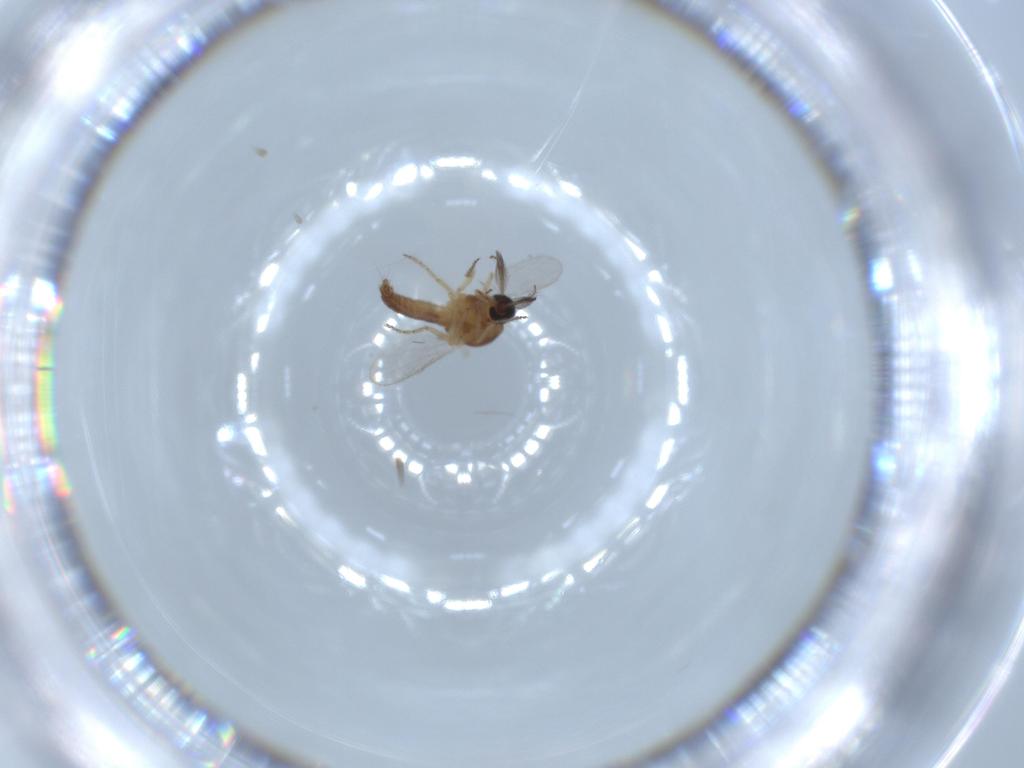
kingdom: Animalia
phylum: Arthropoda
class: Insecta
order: Diptera
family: Ceratopogonidae
